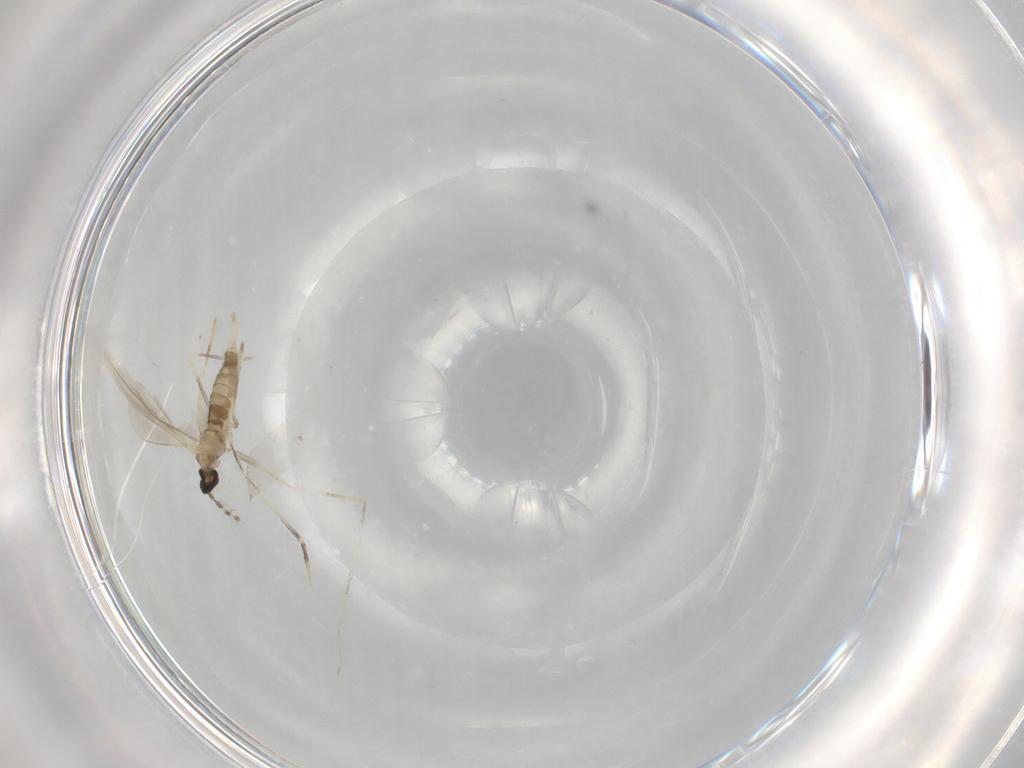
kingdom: Animalia
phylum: Arthropoda
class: Insecta
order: Diptera
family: Cecidomyiidae
